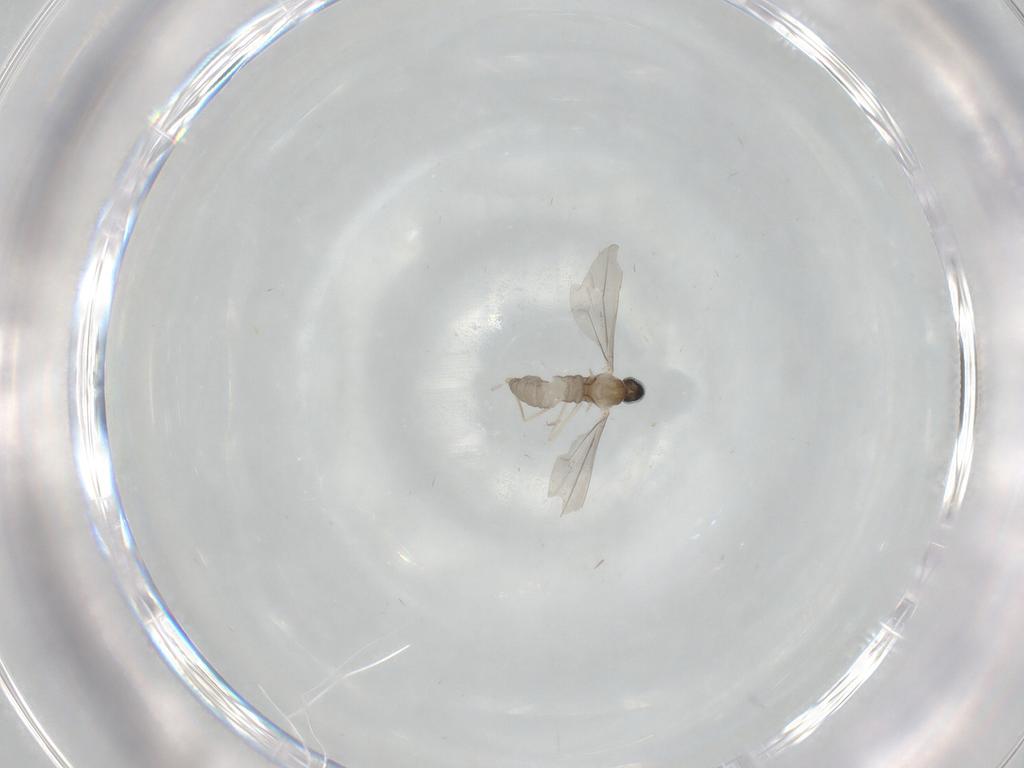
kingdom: Animalia
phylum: Arthropoda
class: Insecta
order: Diptera
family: Cecidomyiidae
